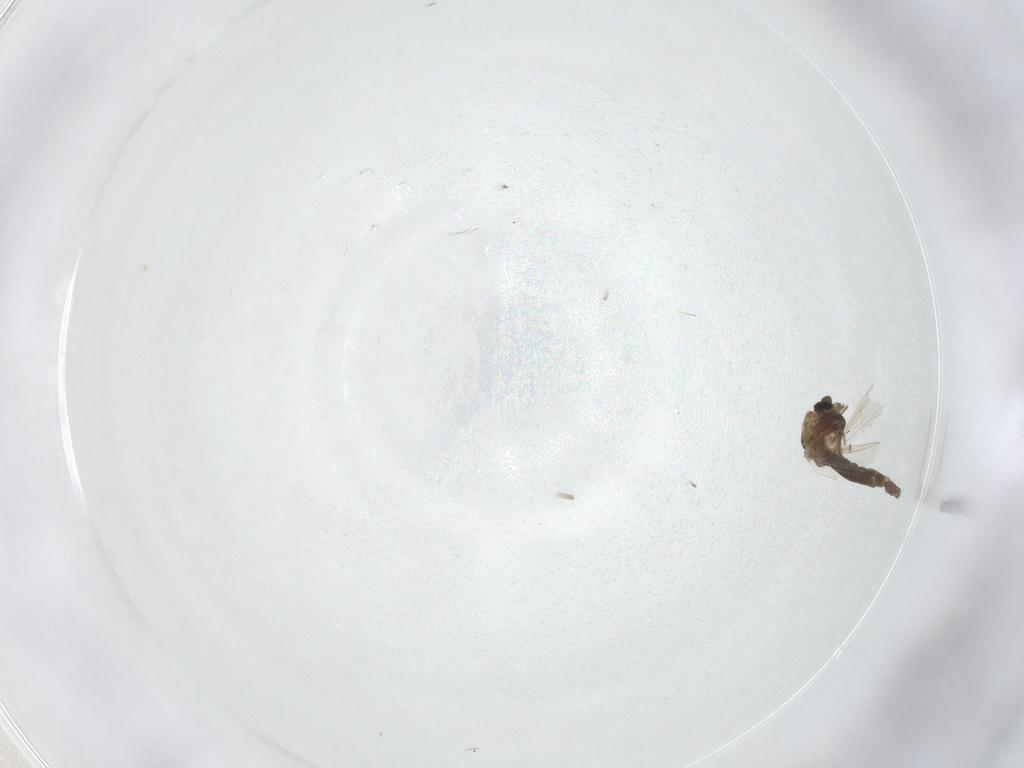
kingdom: Animalia
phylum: Arthropoda
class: Insecta
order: Diptera
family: Chironomidae
